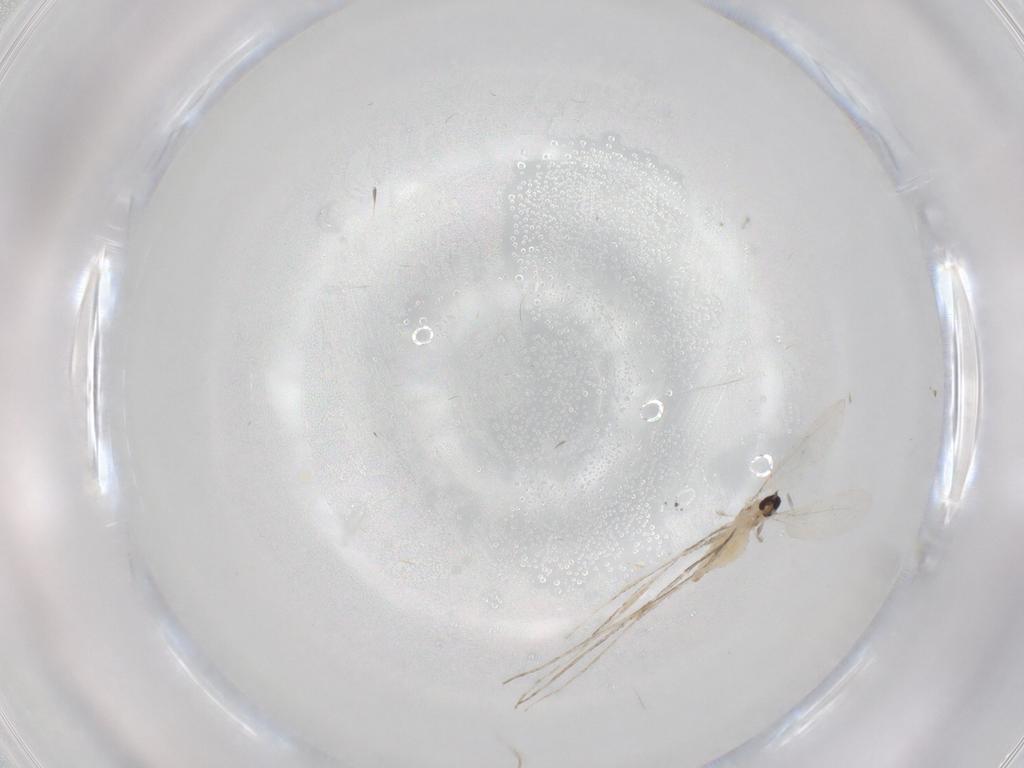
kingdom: Animalia
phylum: Arthropoda
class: Insecta
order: Diptera
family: Cecidomyiidae
